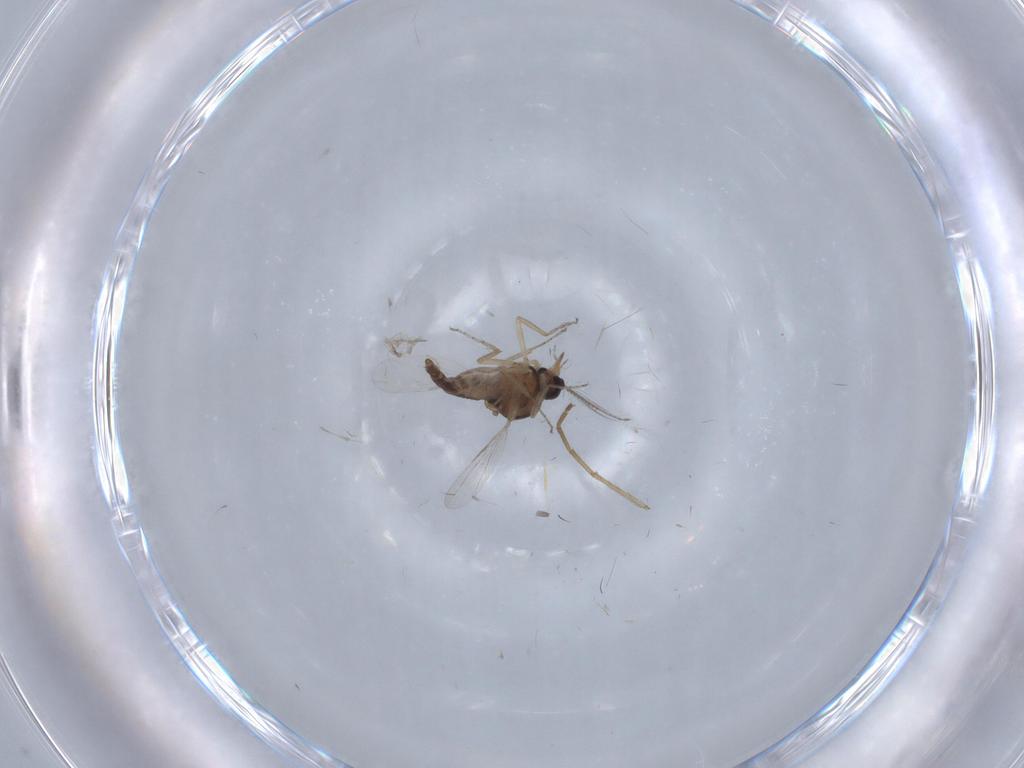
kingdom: Animalia
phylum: Arthropoda
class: Insecta
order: Diptera
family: Ceratopogonidae
